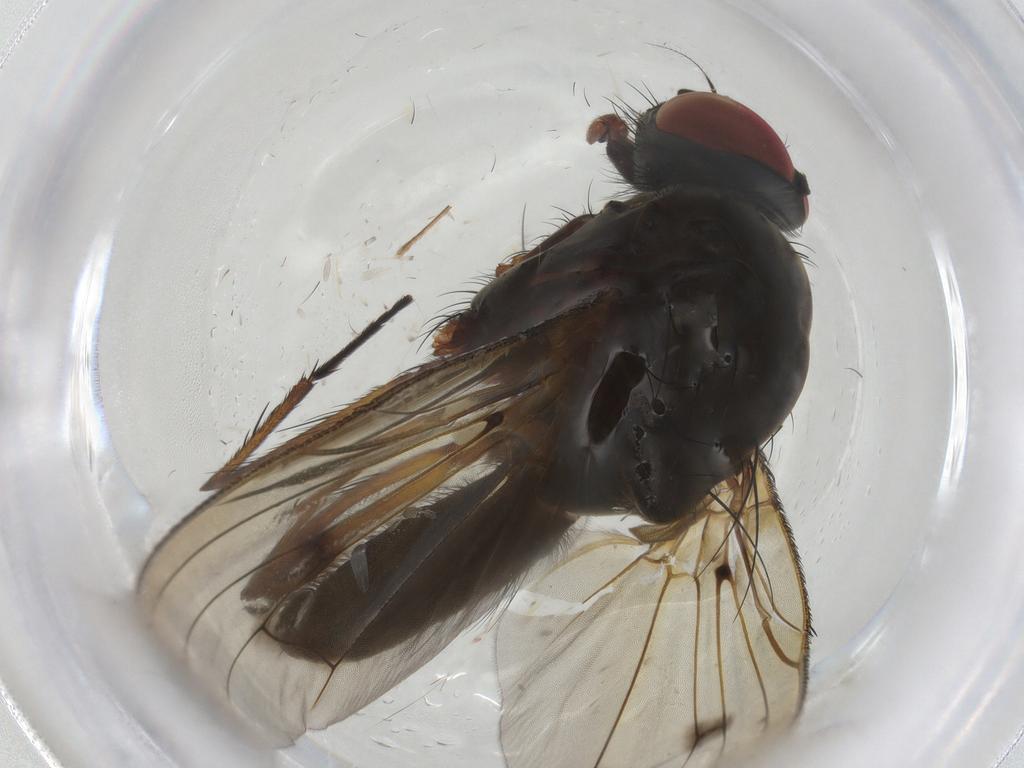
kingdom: Animalia
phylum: Arthropoda
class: Insecta
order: Diptera
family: Anthomyiidae
